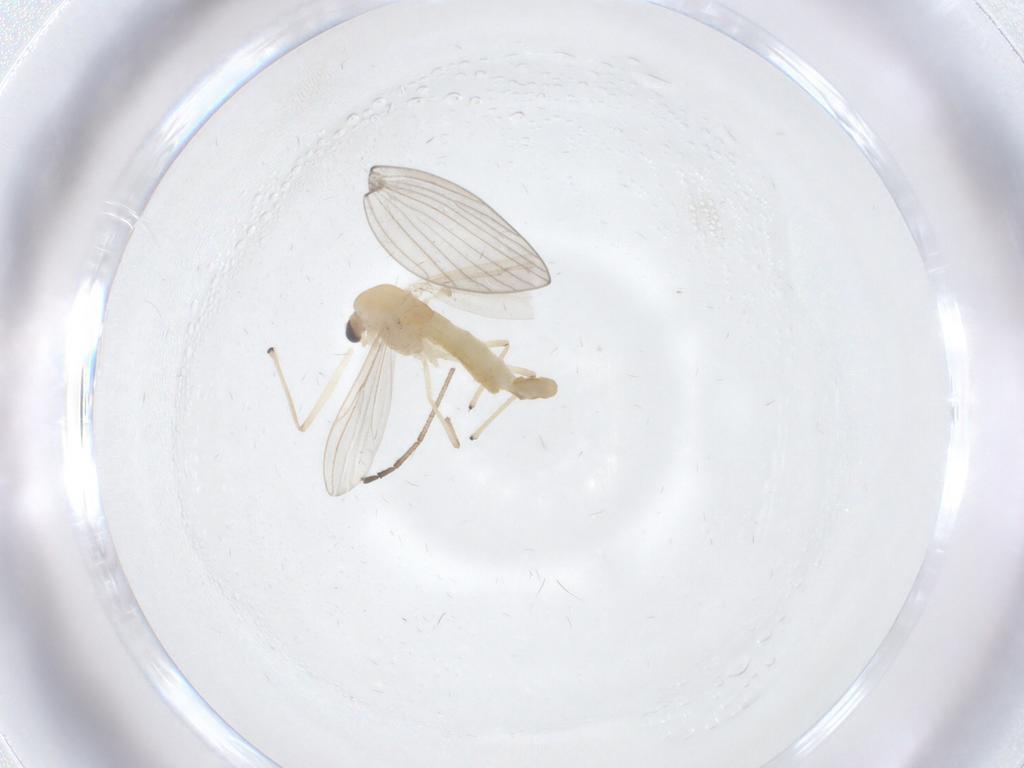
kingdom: Animalia
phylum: Arthropoda
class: Insecta
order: Diptera
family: Chironomidae
